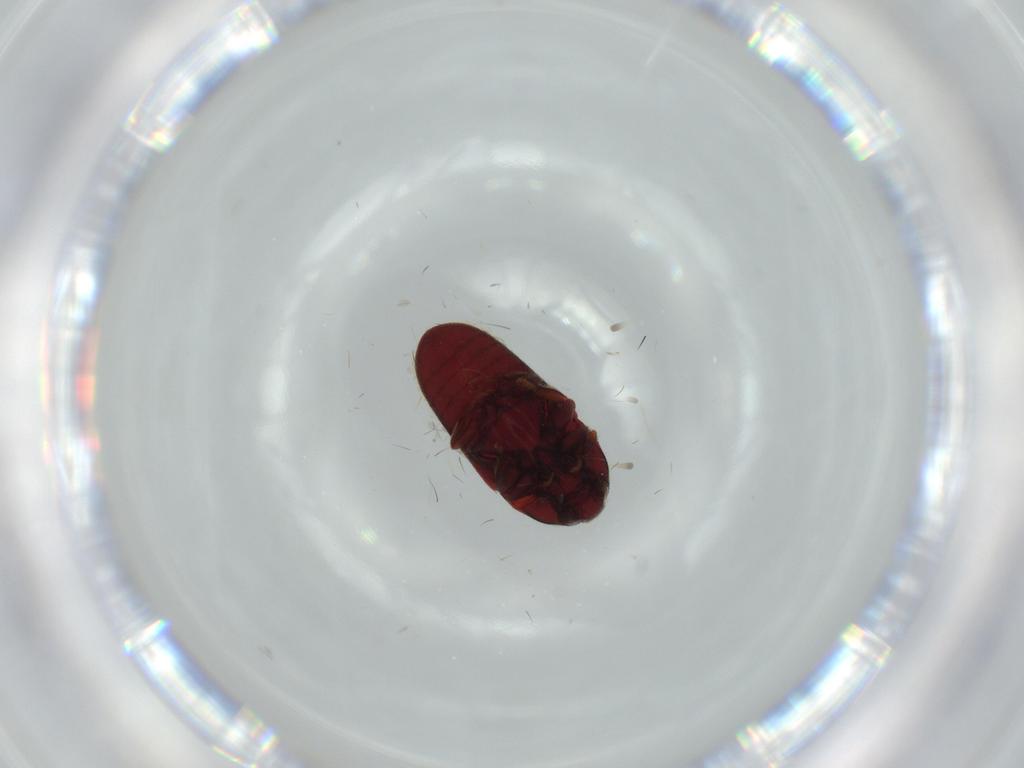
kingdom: Animalia
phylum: Arthropoda
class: Insecta
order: Coleoptera
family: Throscidae
